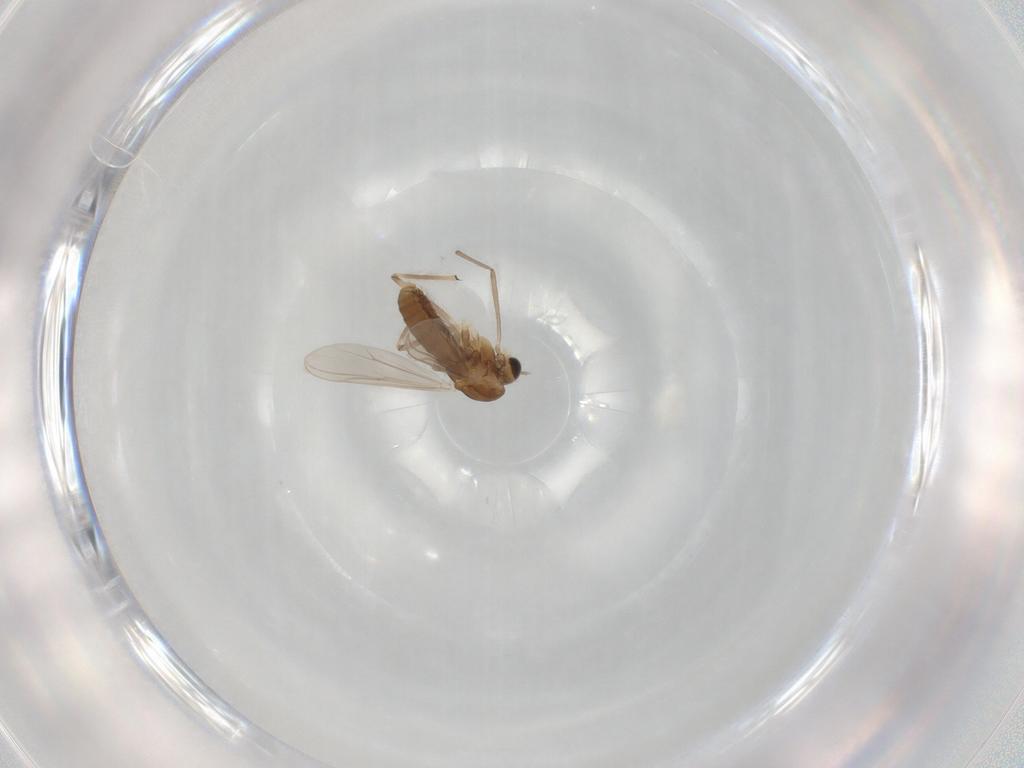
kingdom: Animalia
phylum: Arthropoda
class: Insecta
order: Diptera
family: Chironomidae
